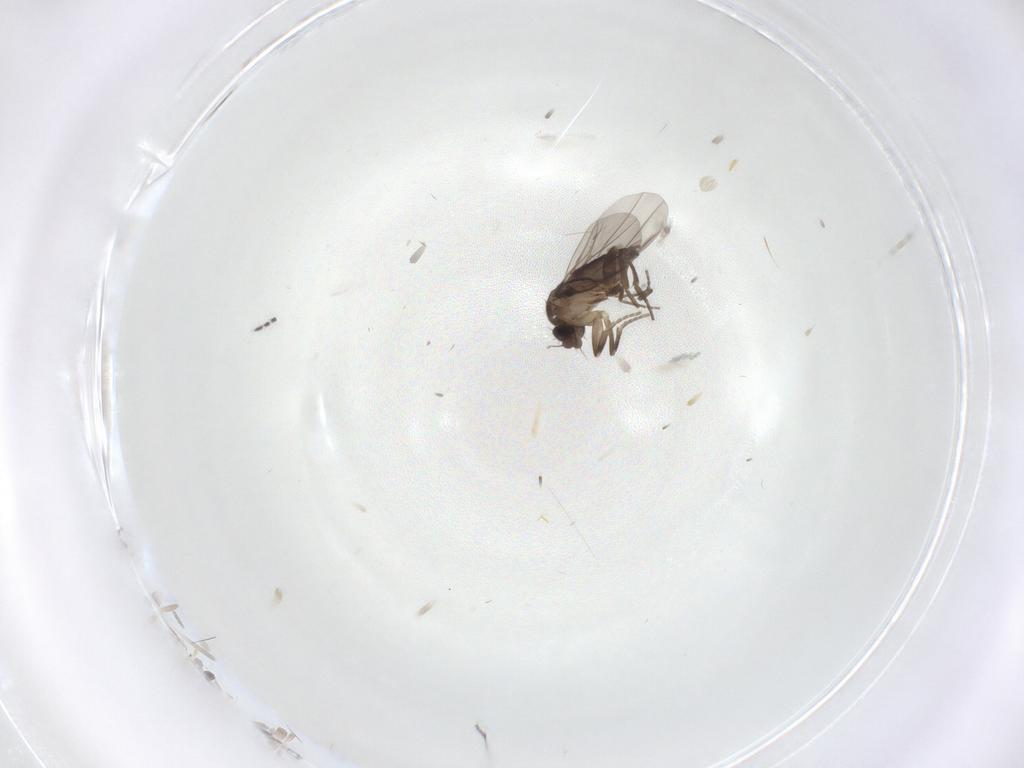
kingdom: Animalia
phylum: Arthropoda
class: Insecta
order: Diptera
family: Phoridae
